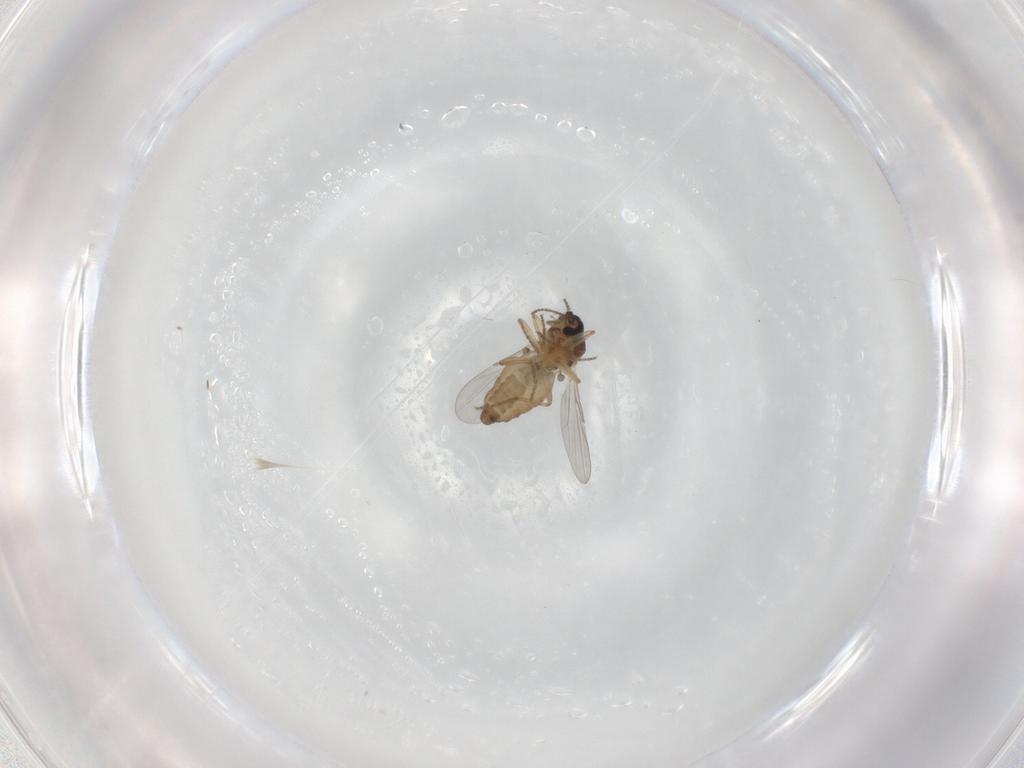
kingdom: Animalia
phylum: Arthropoda
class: Insecta
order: Diptera
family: Ceratopogonidae
